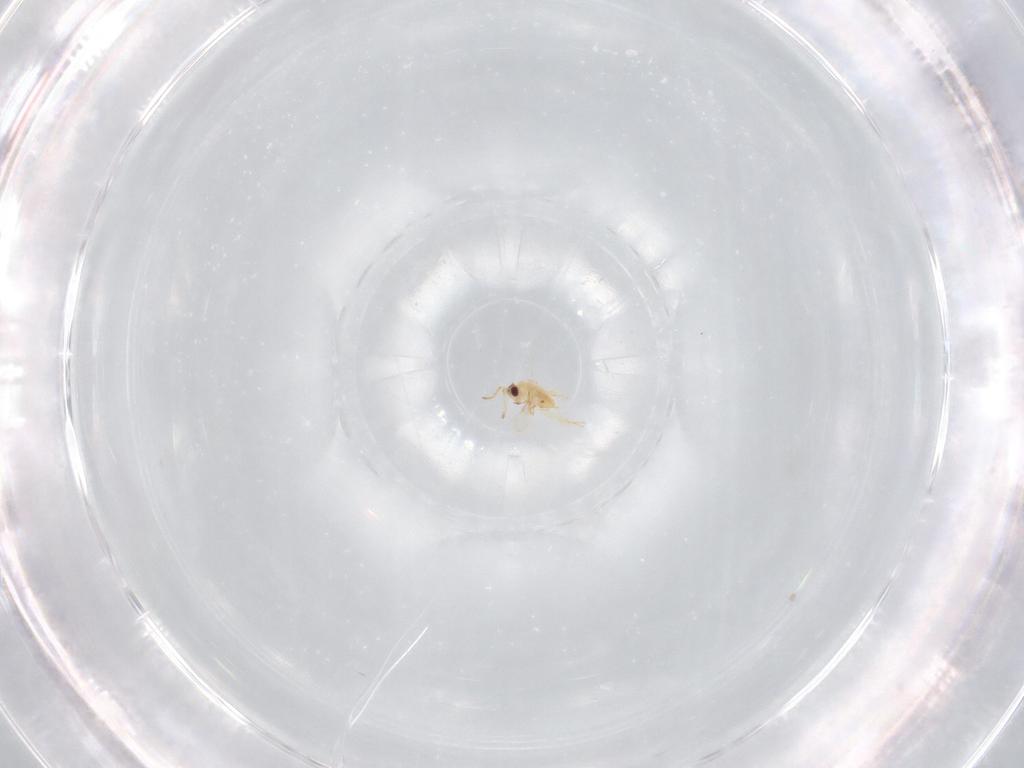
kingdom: Animalia
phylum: Arthropoda
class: Insecta
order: Hymenoptera
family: Aphelinidae
